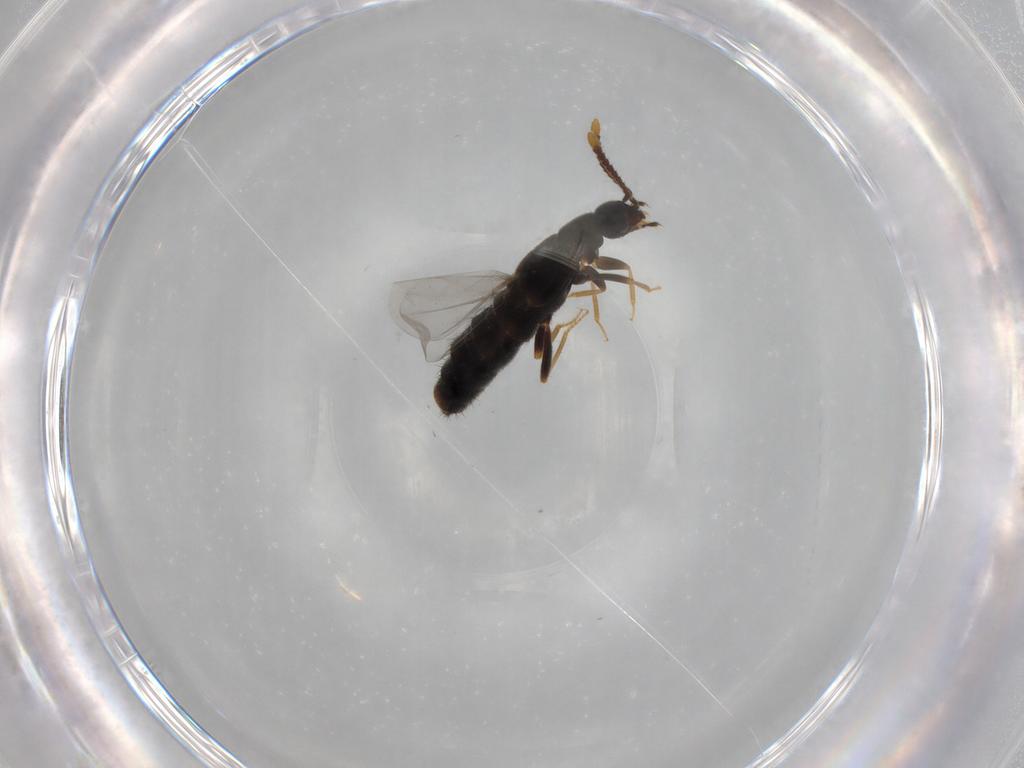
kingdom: Animalia
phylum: Arthropoda
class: Insecta
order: Coleoptera
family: Staphylinidae
